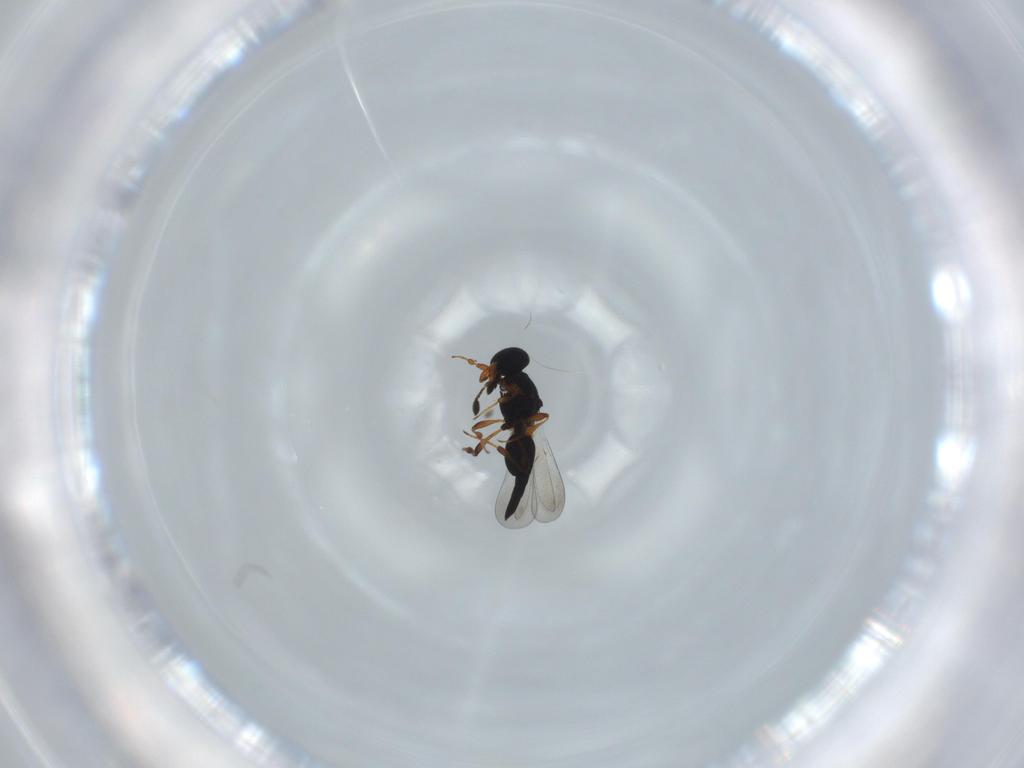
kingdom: Animalia
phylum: Arthropoda
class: Insecta
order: Hymenoptera
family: Platygastridae
